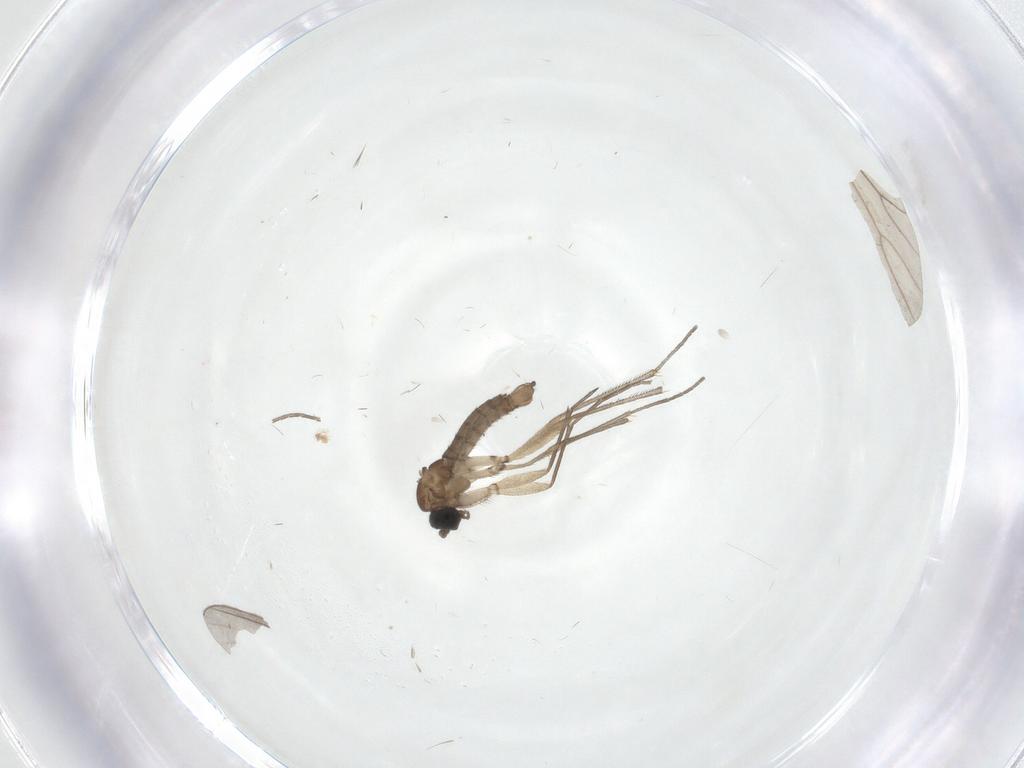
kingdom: Animalia
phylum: Arthropoda
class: Insecta
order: Diptera
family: Sciaridae
